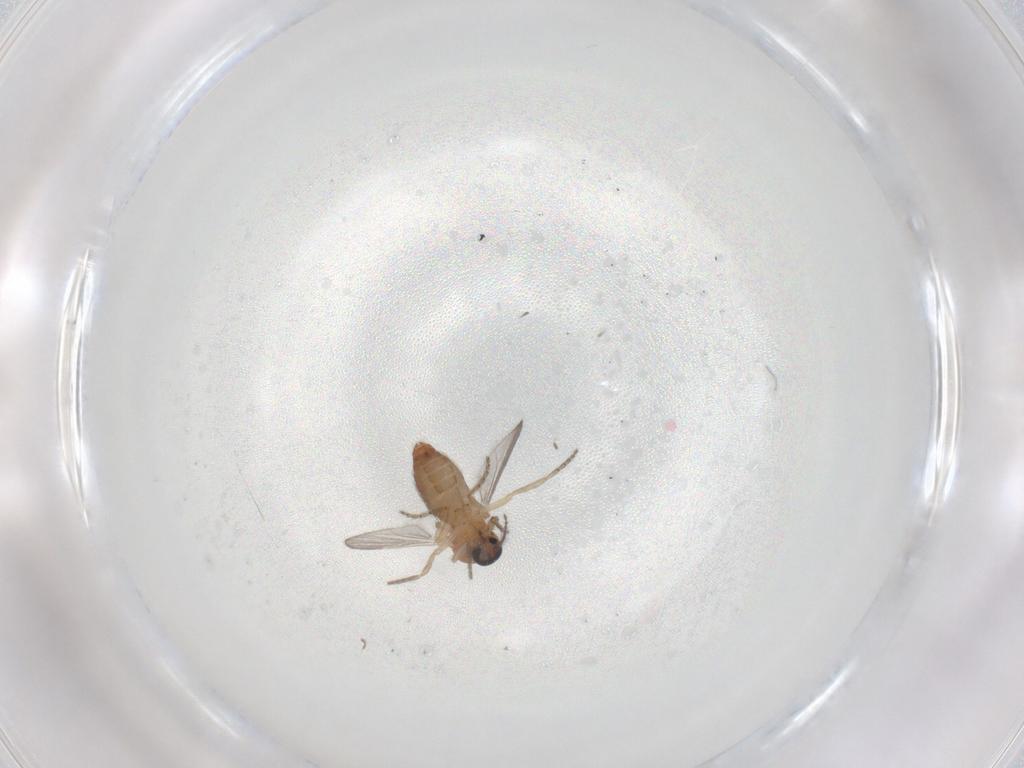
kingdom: Animalia
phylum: Arthropoda
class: Insecta
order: Diptera
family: Ceratopogonidae
